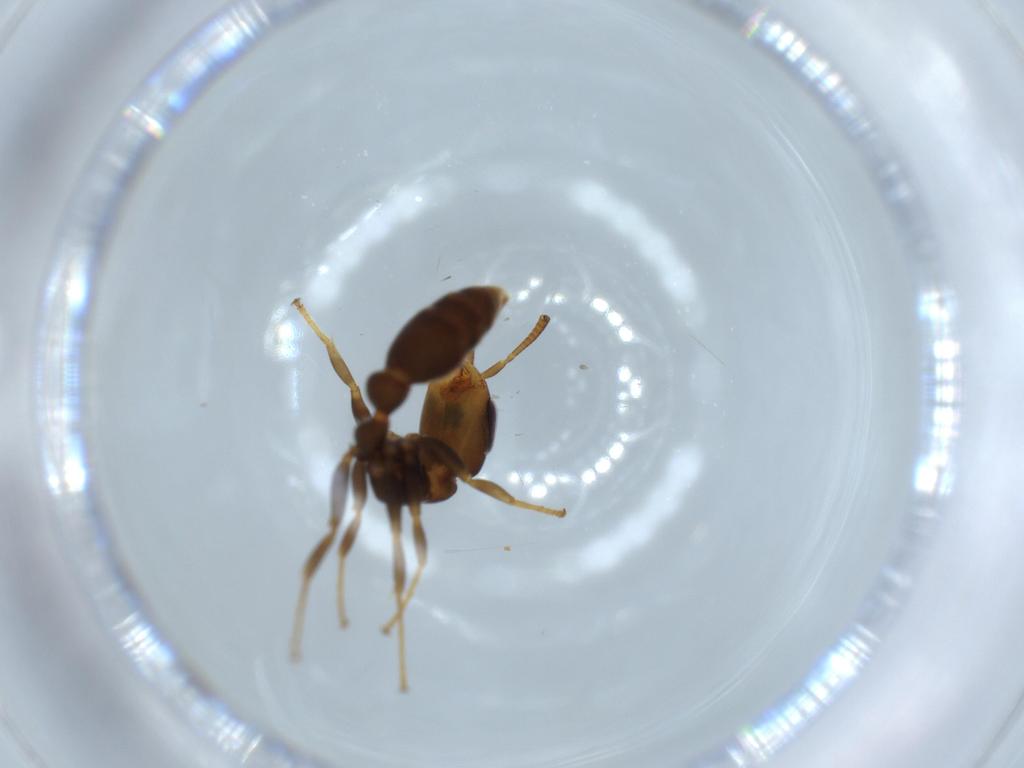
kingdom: Animalia
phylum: Arthropoda
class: Insecta
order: Hymenoptera
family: Formicidae
